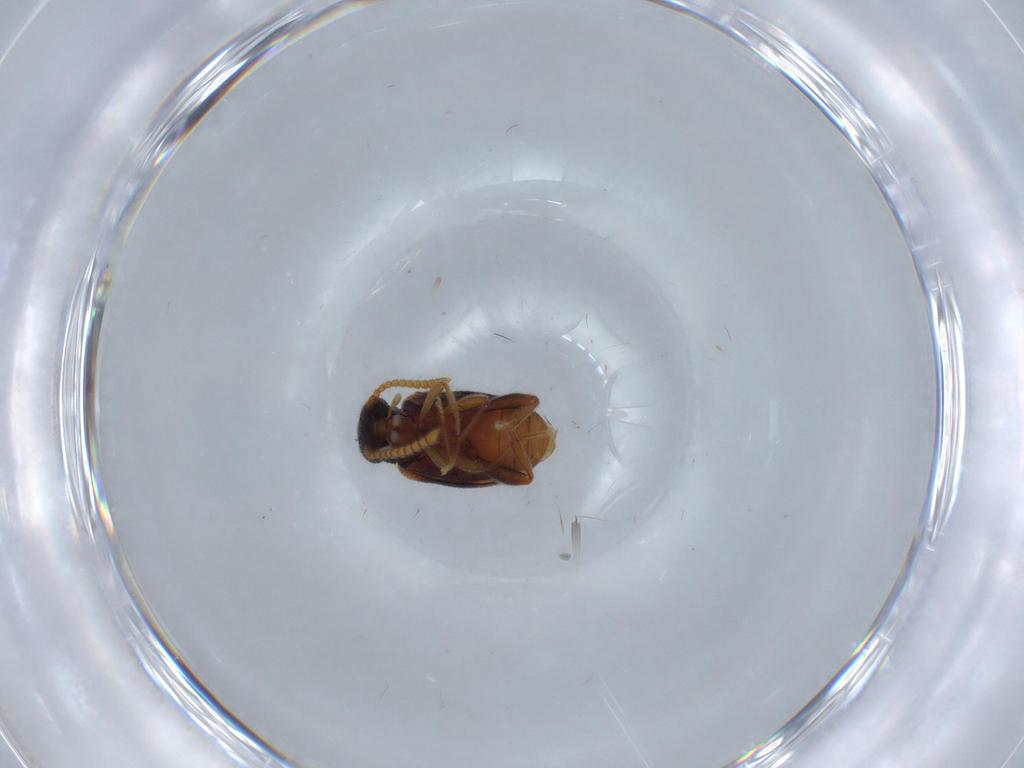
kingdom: Animalia
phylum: Arthropoda
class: Insecta
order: Coleoptera
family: Aderidae
